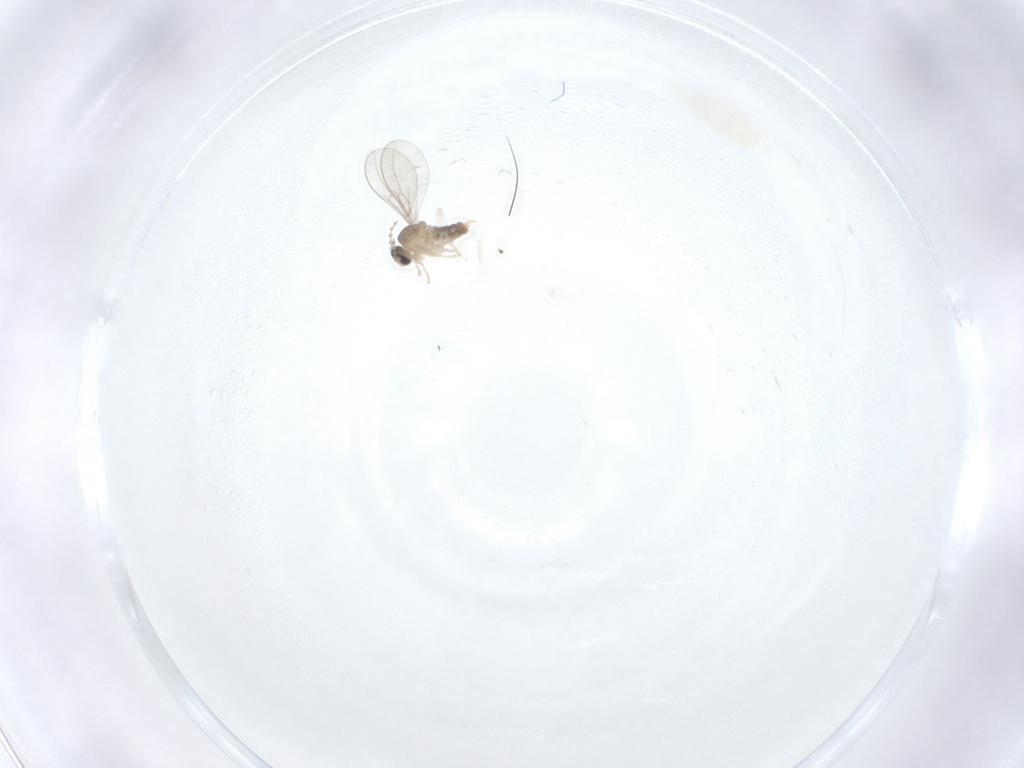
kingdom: Animalia
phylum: Arthropoda
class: Insecta
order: Diptera
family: Cecidomyiidae
